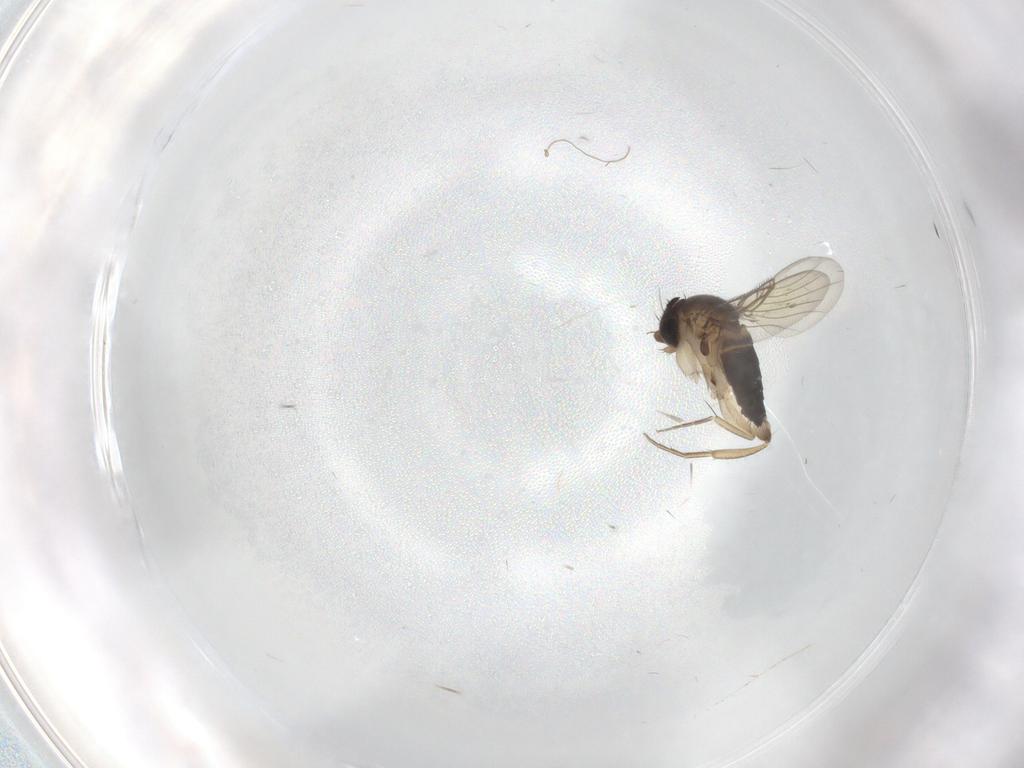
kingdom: Animalia
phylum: Arthropoda
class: Insecta
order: Diptera
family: Phoridae
